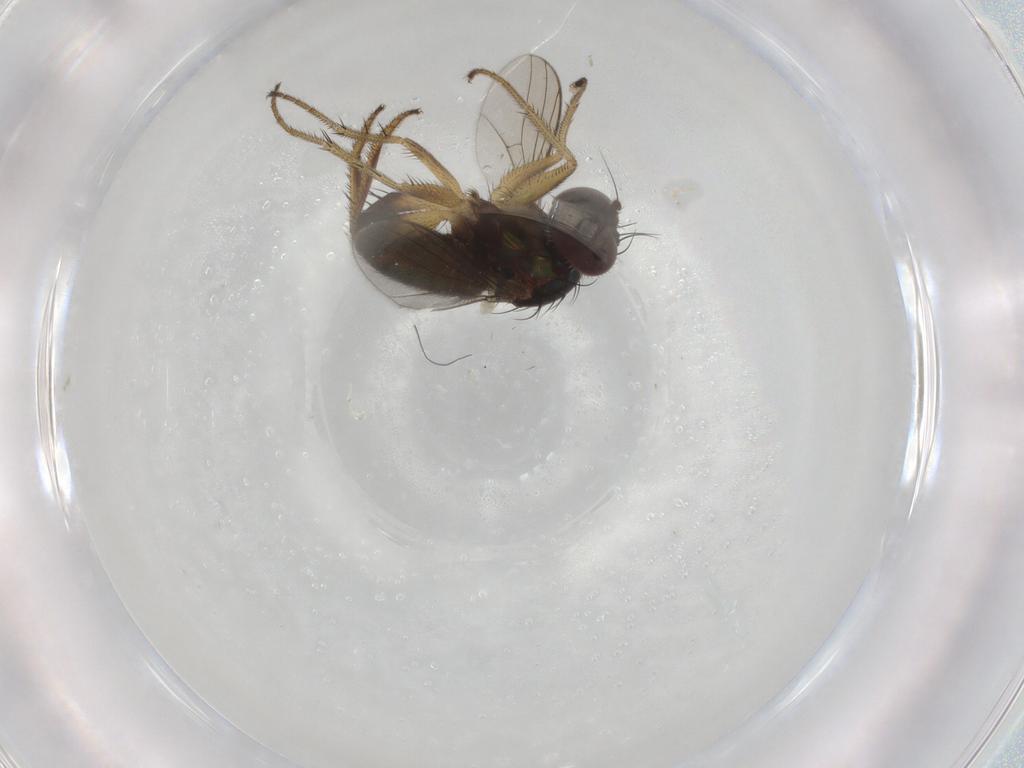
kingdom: Animalia
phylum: Arthropoda
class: Insecta
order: Diptera
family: Dolichopodidae
